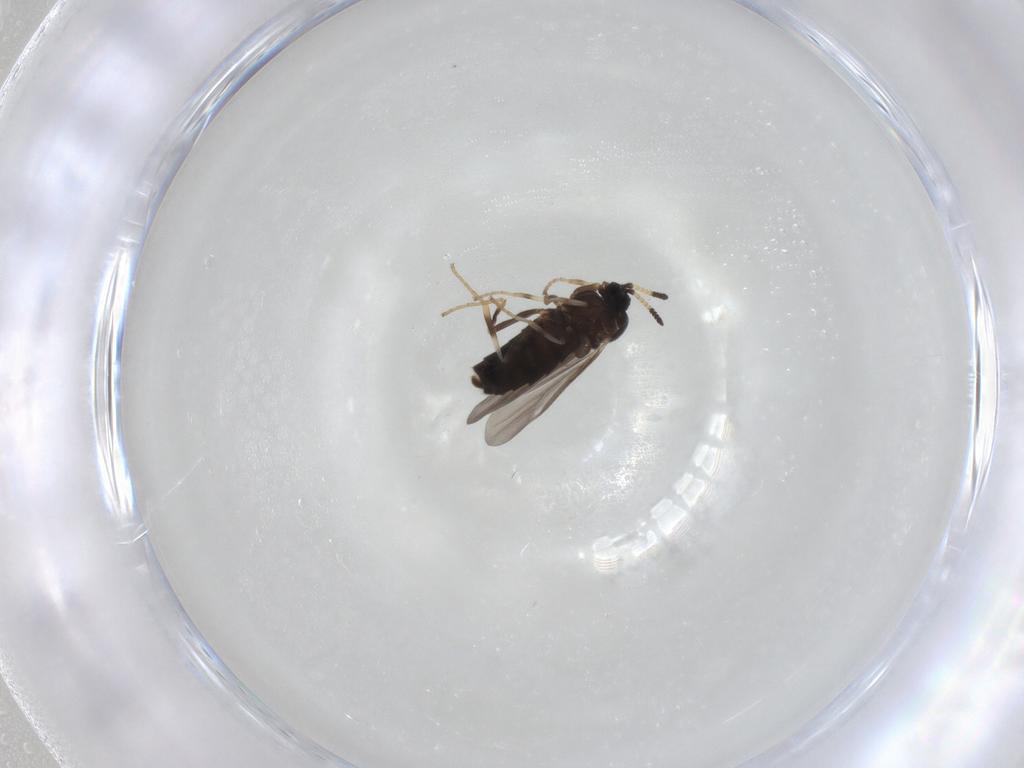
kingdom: Animalia
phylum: Arthropoda
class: Insecta
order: Diptera
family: Scatopsidae
